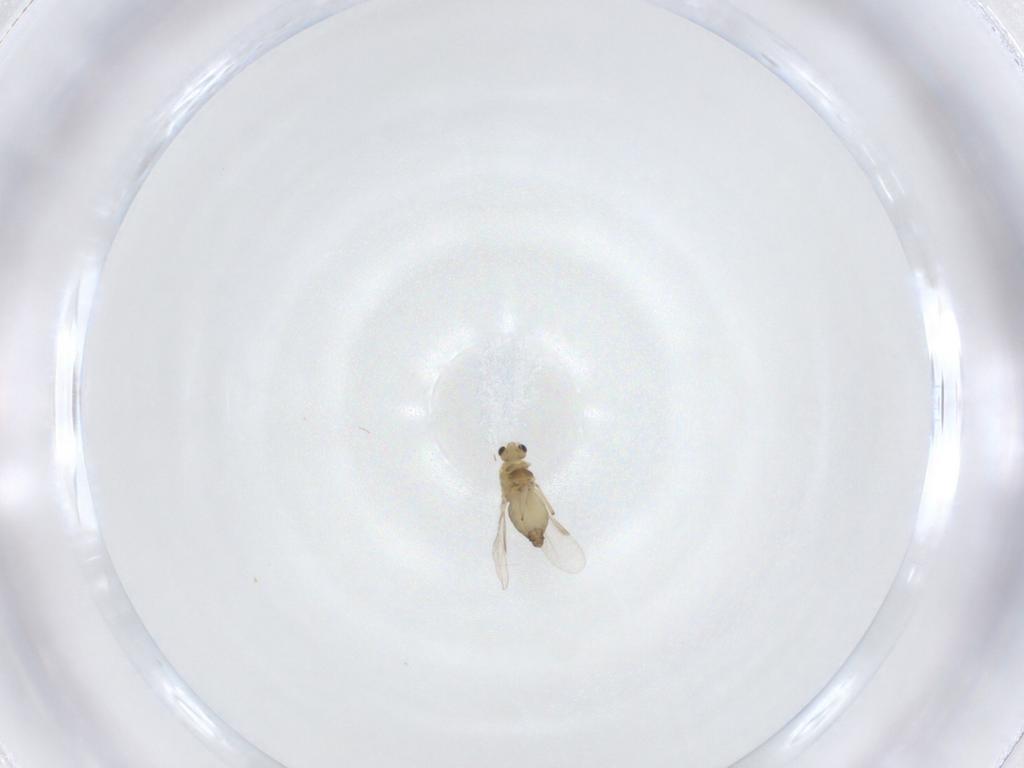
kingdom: Animalia
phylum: Arthropoda
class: Insecta
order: Diptera
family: Chironomidae
